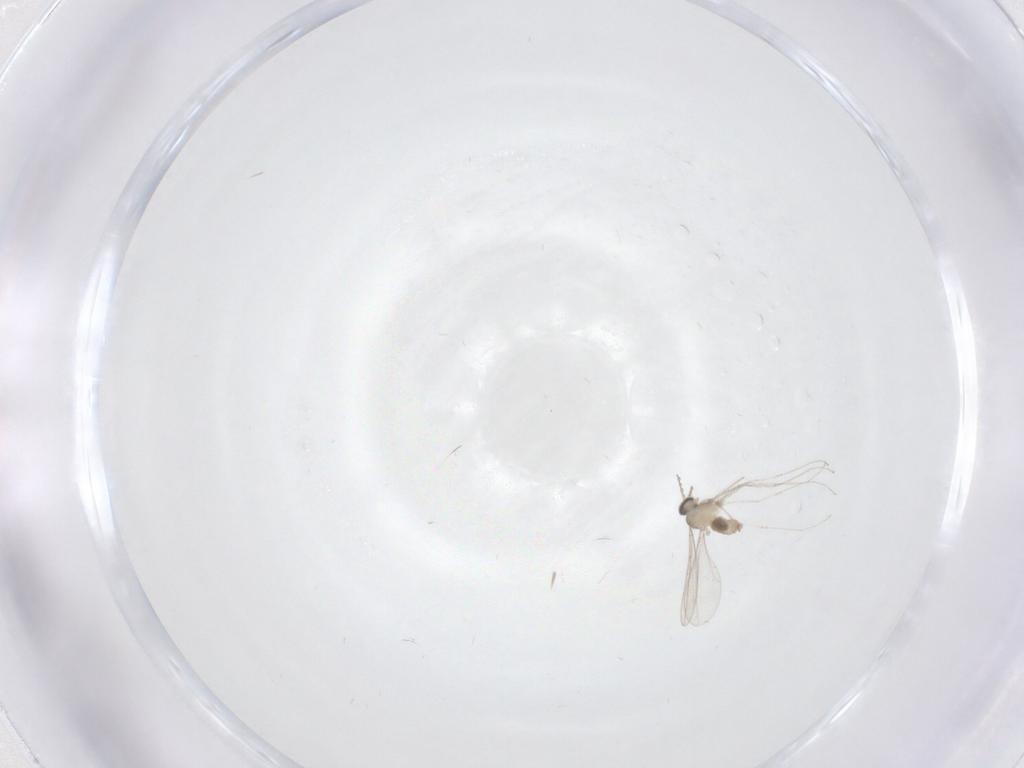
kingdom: Animalia
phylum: Arthropoda
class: Insecta
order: Diptera
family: Cecidomyiidae
